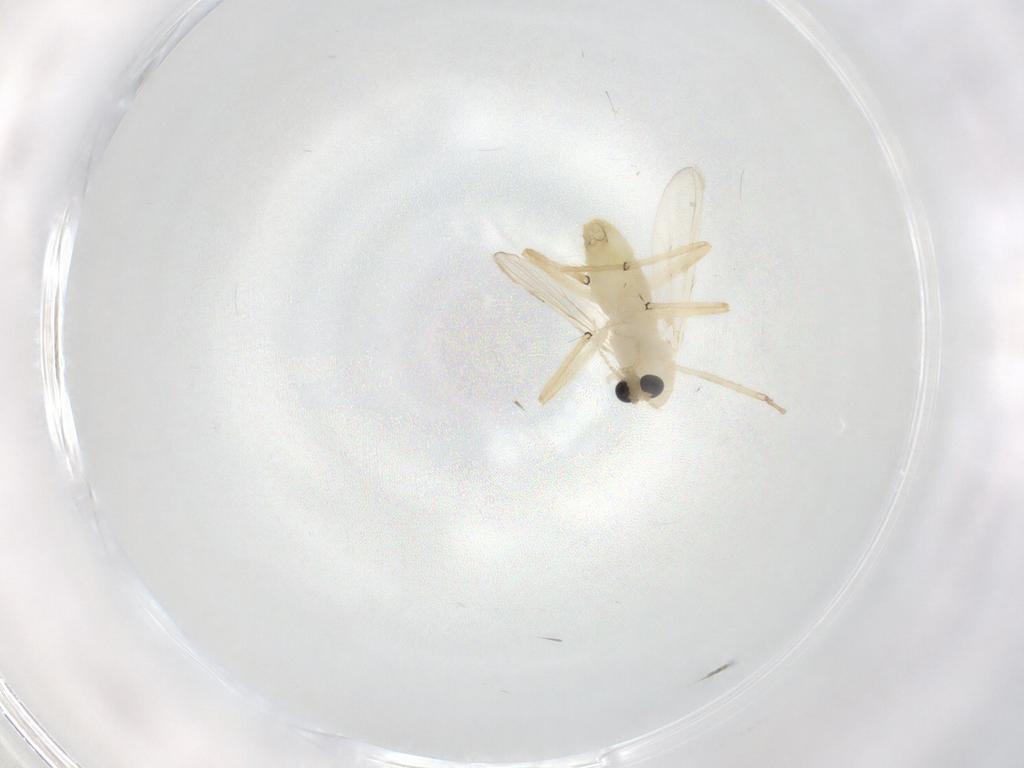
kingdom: Animalia
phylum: Arthropoda
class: Insecta
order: Diptera
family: Chironomidae
